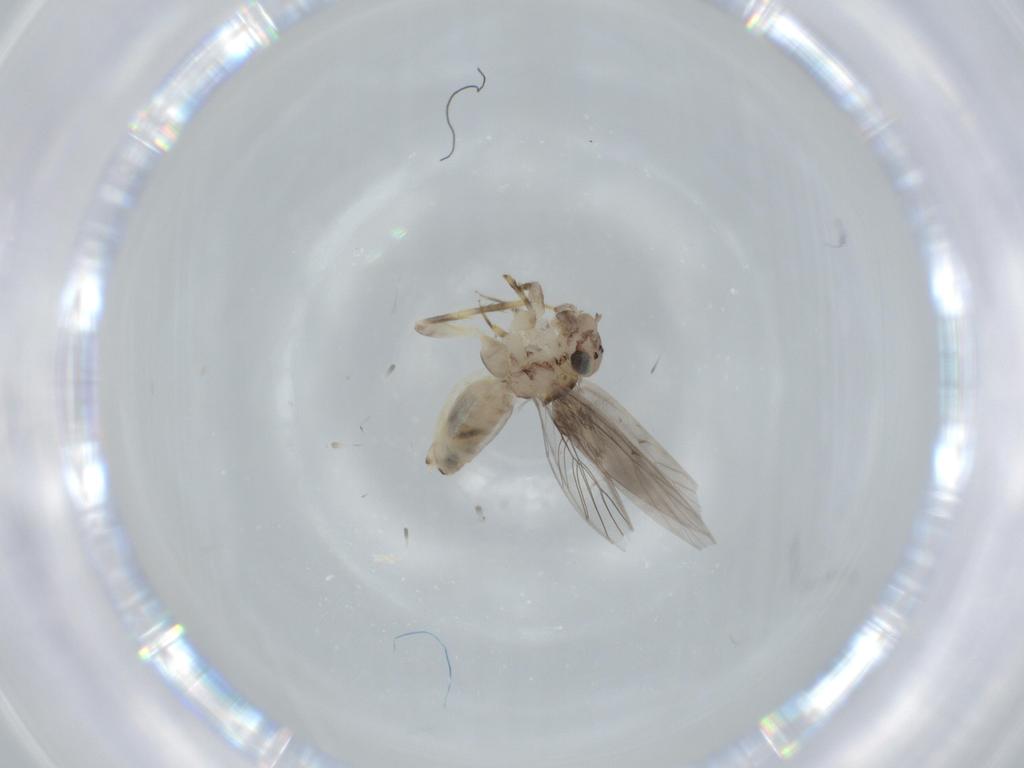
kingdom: Animalia
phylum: Arthropoda
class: Insecta
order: Psocodea
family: Lepidopsocidae
